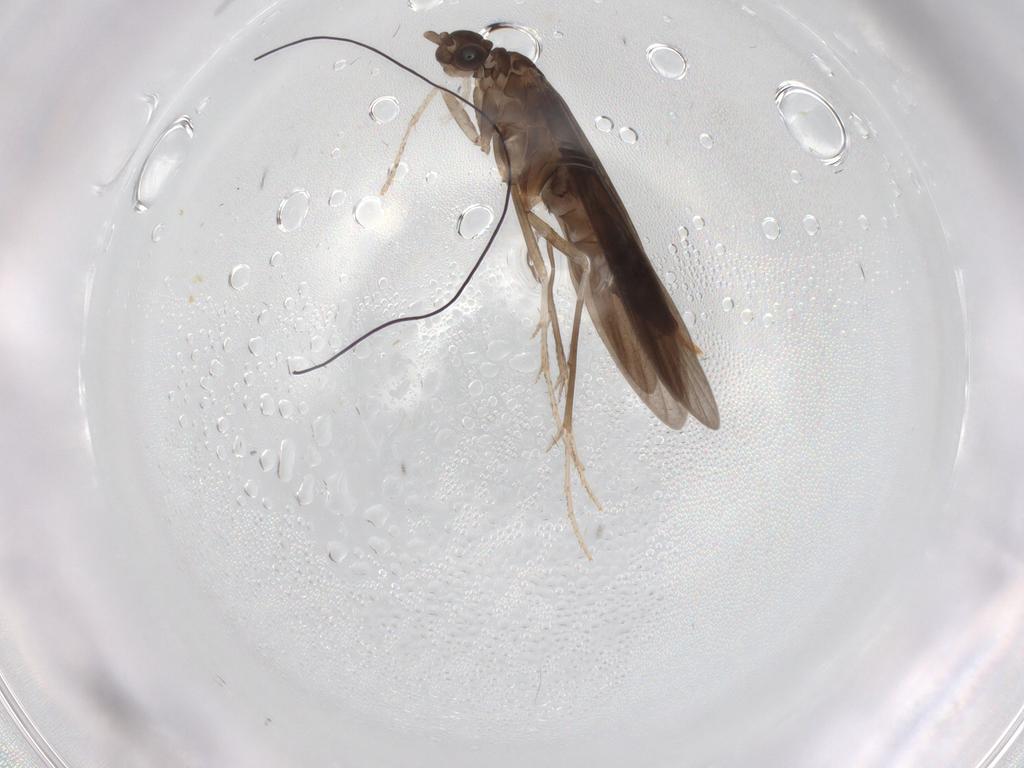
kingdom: Animalia
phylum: Arthropoda
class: Insecta
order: Trichoptera
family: Xiphocentronidae
